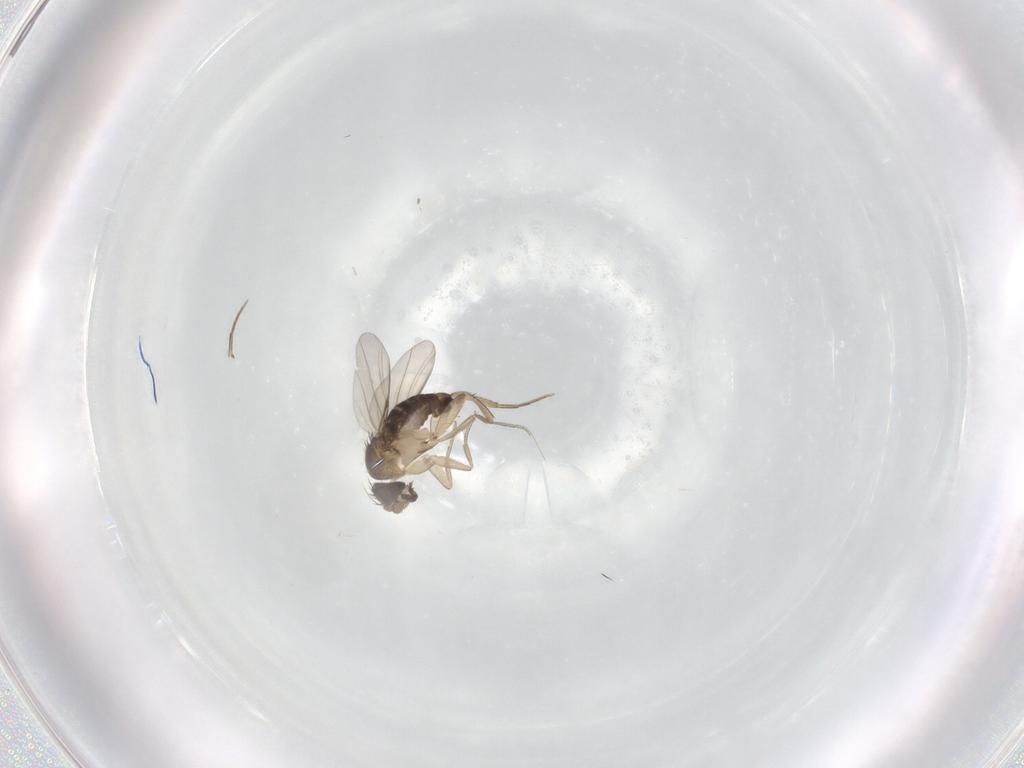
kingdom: Animalia
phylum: Arthropoda
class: Insecta
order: Diptera
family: Phoridae
